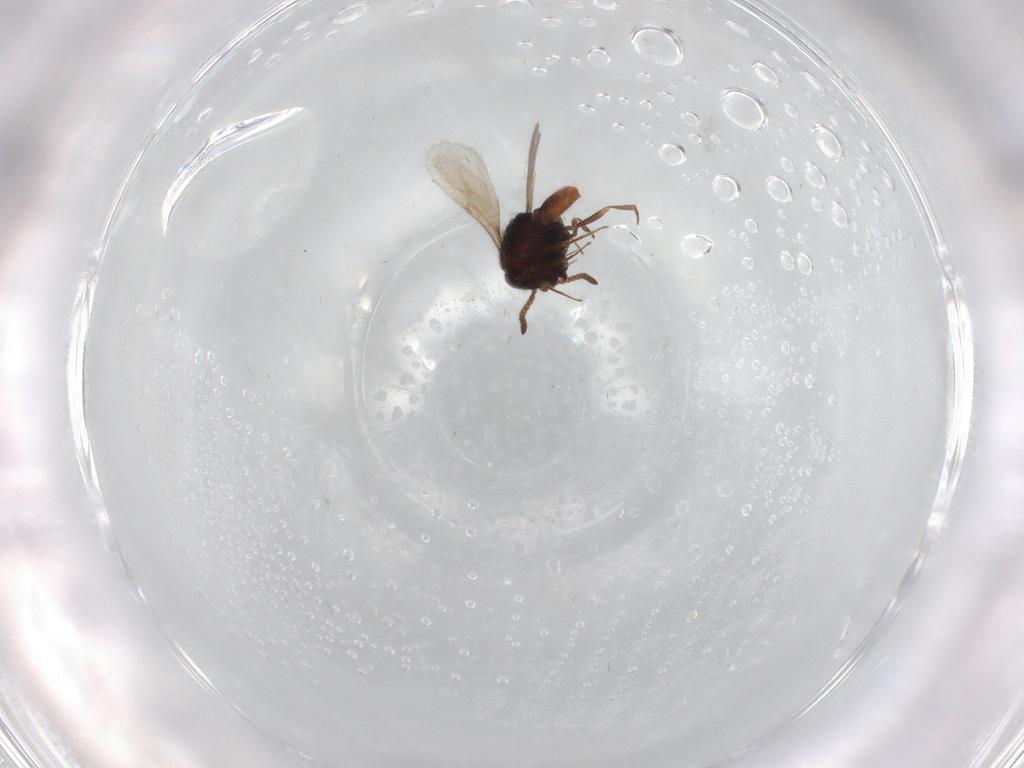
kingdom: Animalia
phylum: Arthropoda
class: Insecta
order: Hymenoptera
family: Scelionidae
